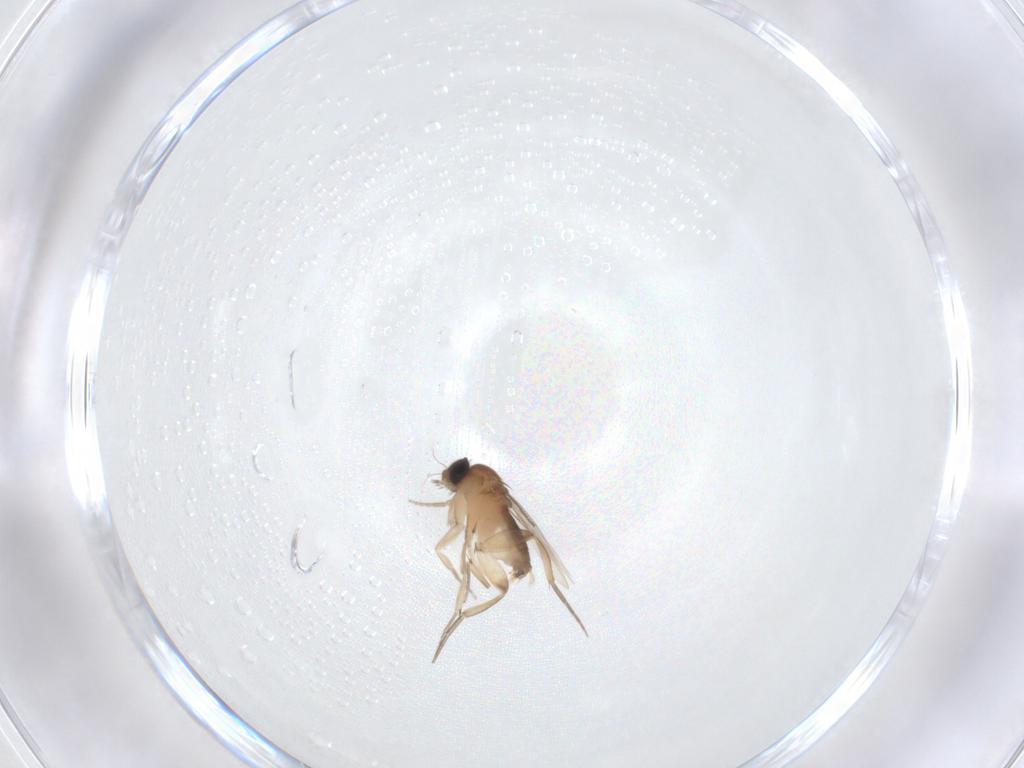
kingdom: Animalia
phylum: Arthropoda
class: Insecta
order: Diptera
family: Phoridae
